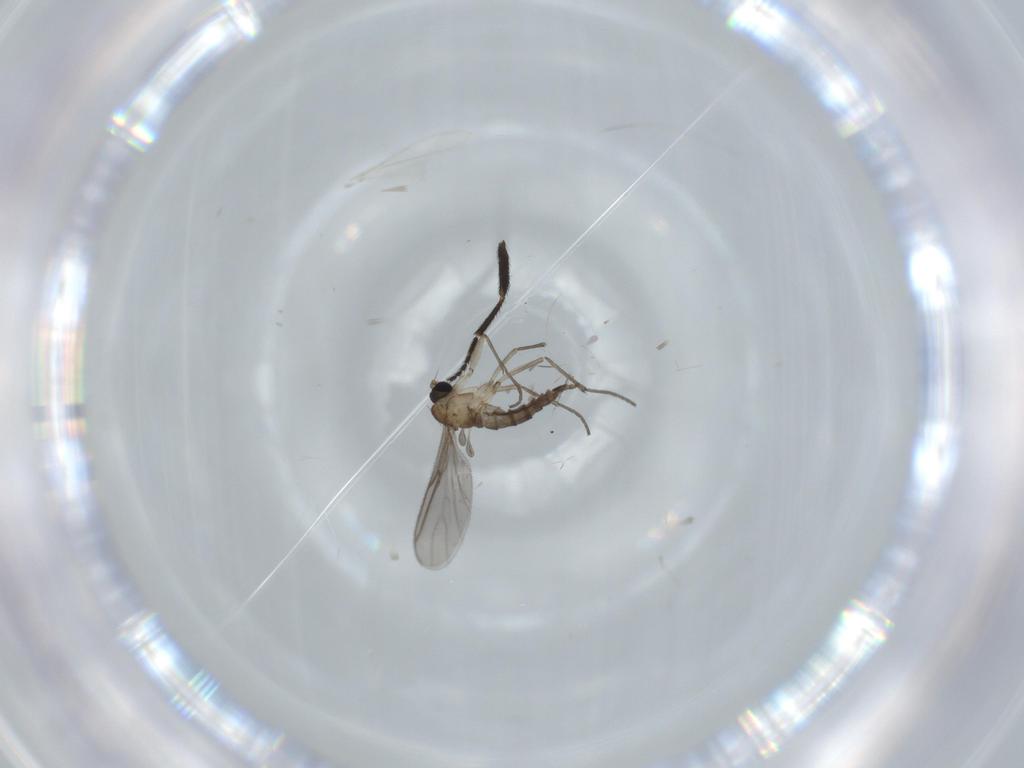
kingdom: Animalia
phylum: Arthropoda
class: Insecta
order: Diptera
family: Sciaridae
